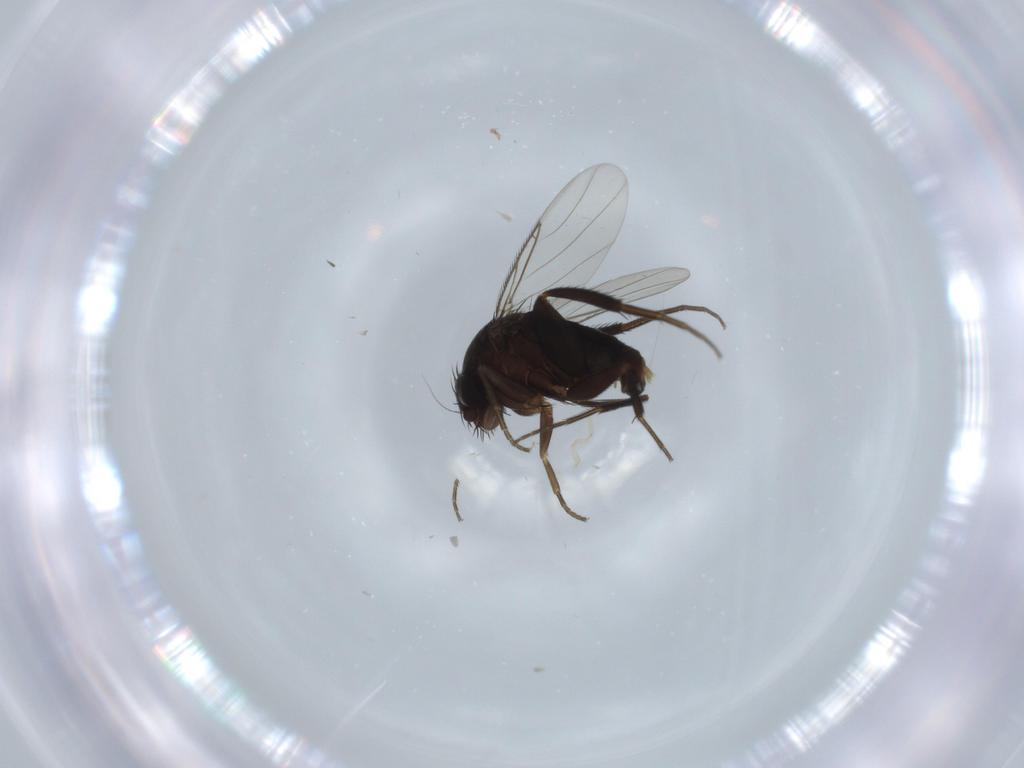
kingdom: Animalia
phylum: Arthropoda
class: Insecta
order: Diptera
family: Phoridae
